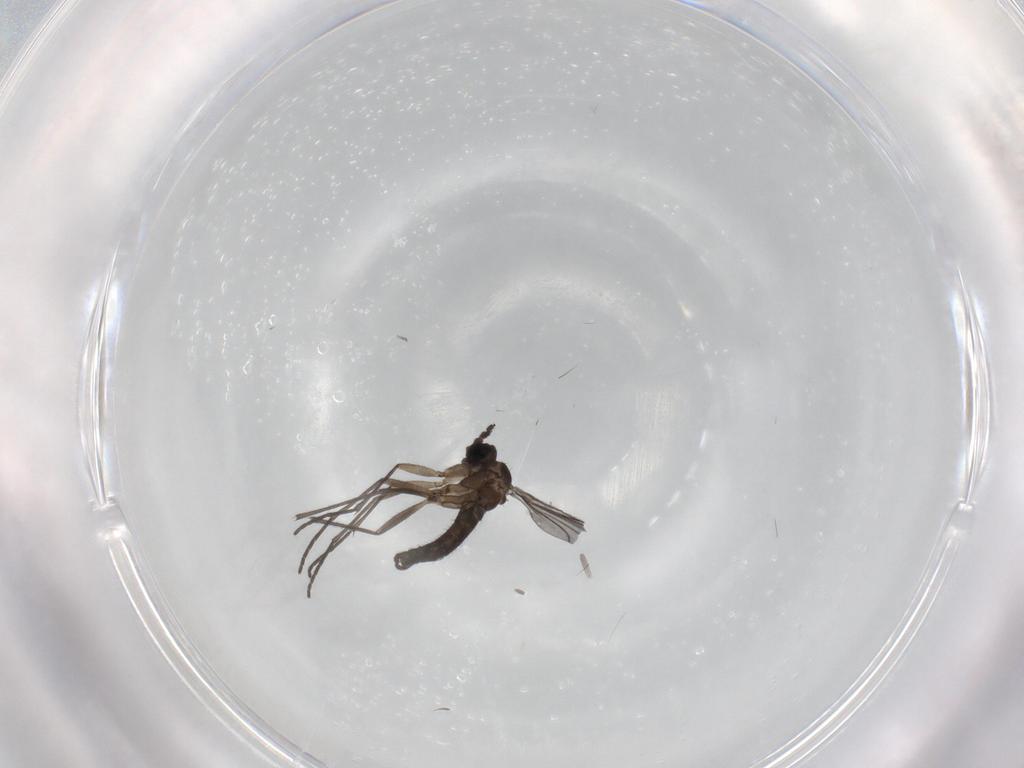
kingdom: Animalia
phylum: Arthropoda
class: Insecta
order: Diptera
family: Sciaridae
